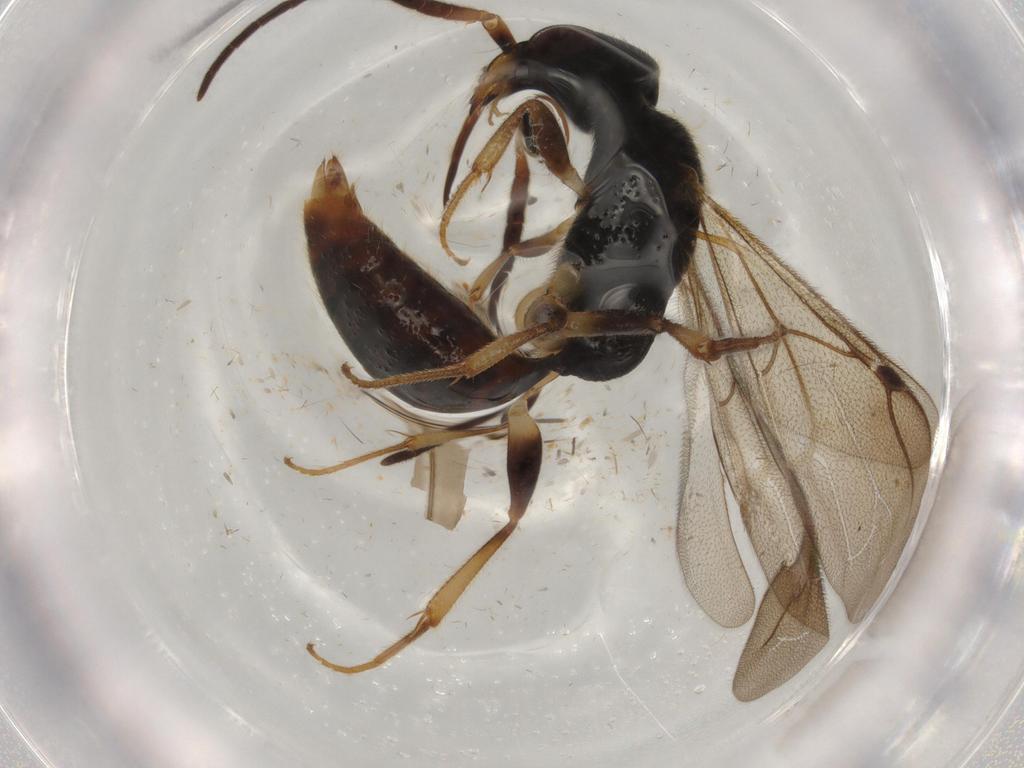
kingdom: Animalia
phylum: Arthropoda
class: Insecta
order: Hymenoptera
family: Bethylidae
